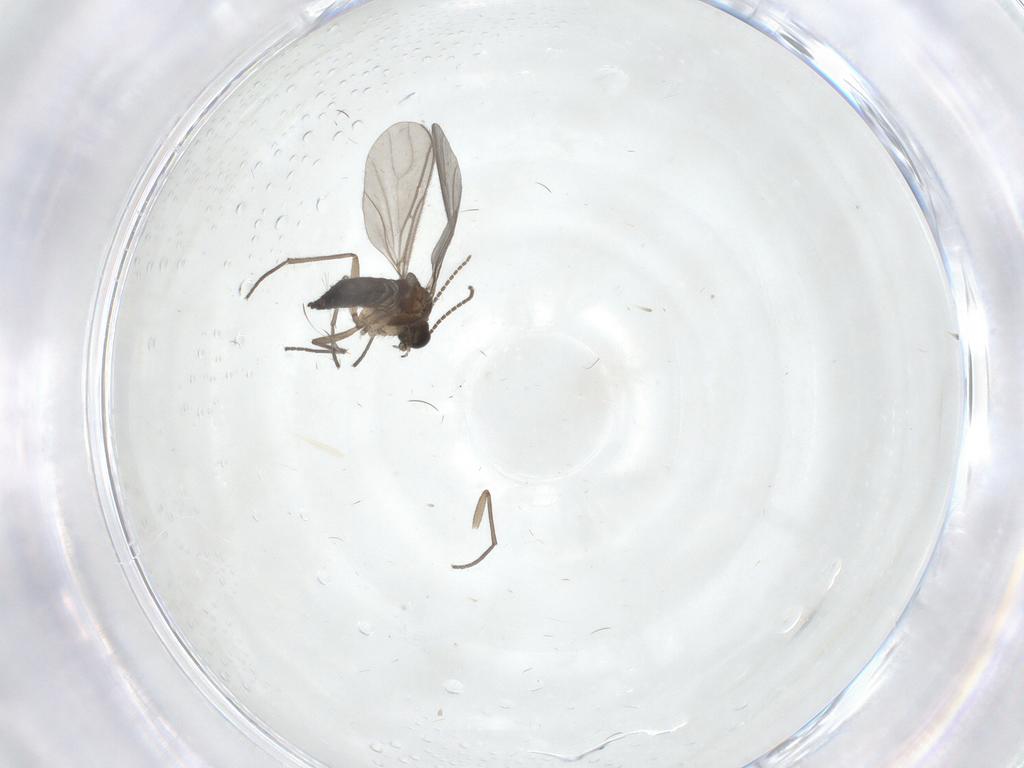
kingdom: Animalia
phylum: Arthropoda
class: Insecta
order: Diptera
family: Sciaridae
